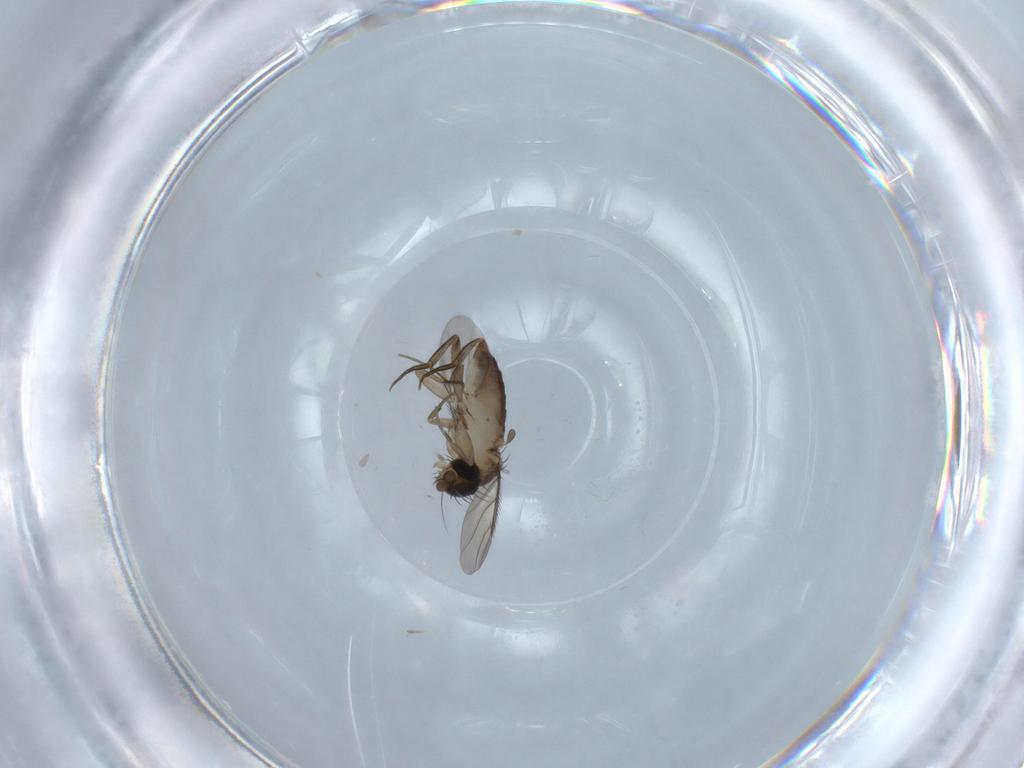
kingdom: Animalia
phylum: Arthropoda
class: Insecta
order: Diptera
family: Phoridae
